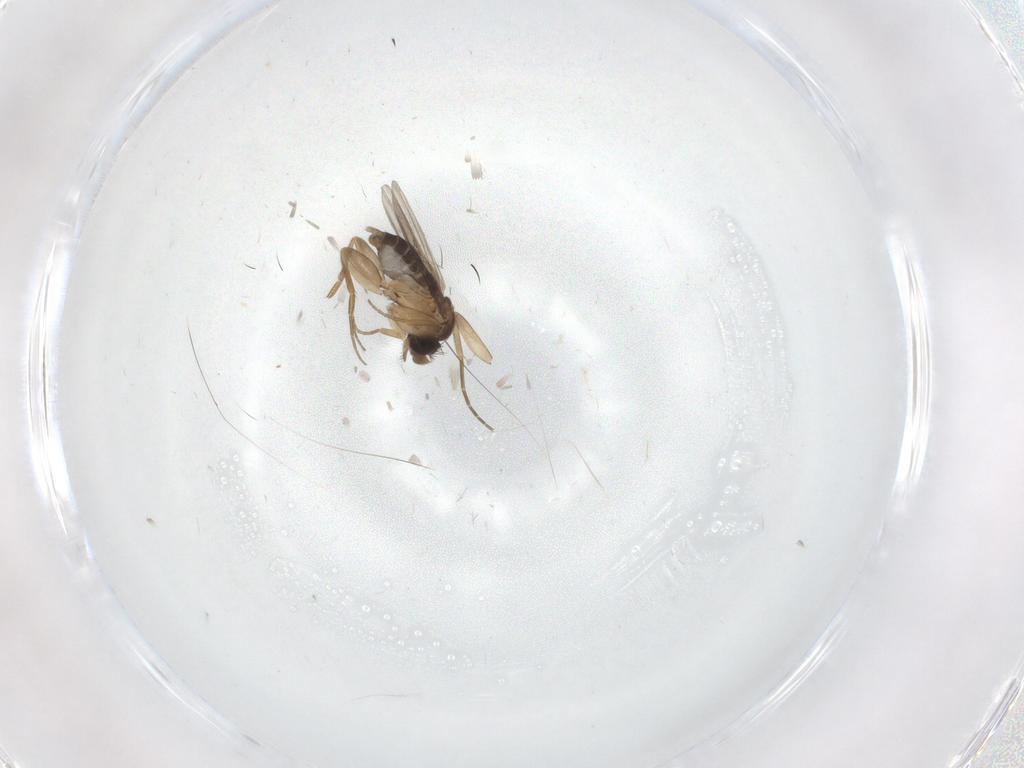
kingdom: Animalia
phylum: Arthropoda
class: Insecta
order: Diptera
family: Phoridae
